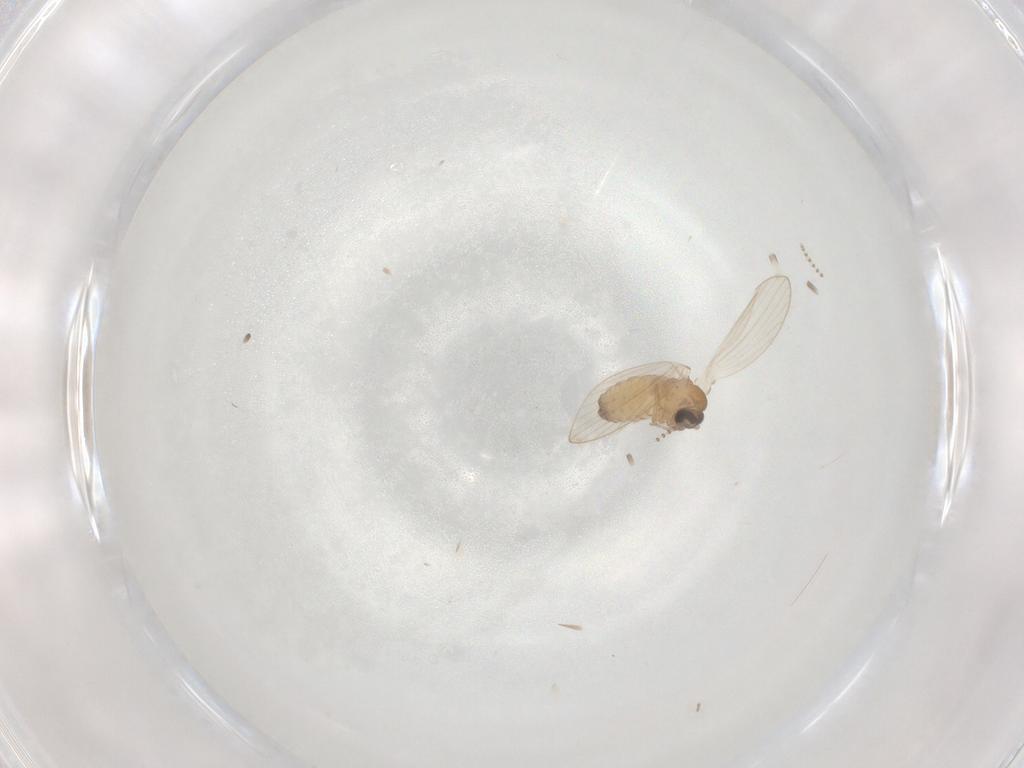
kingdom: Animalia
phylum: Arthropoda
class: Insecta
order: Diptera
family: Psychodidae
